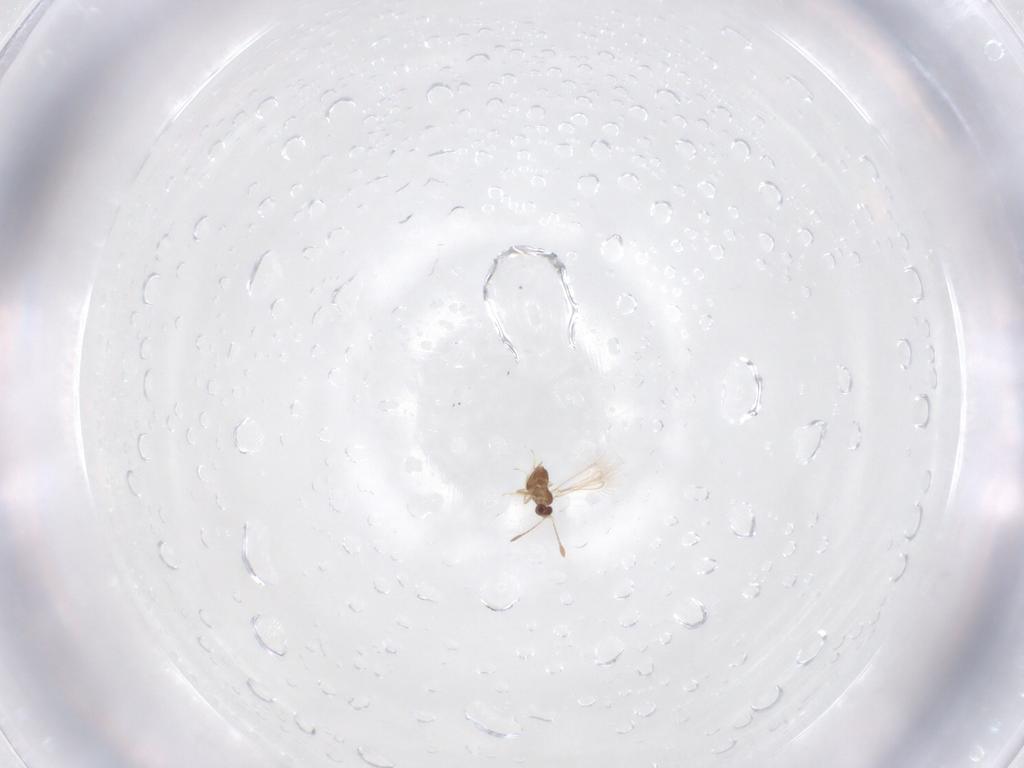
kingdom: Animalia
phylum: Arthropoda
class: Insecta
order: Hymenoptera
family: Mymaridae
